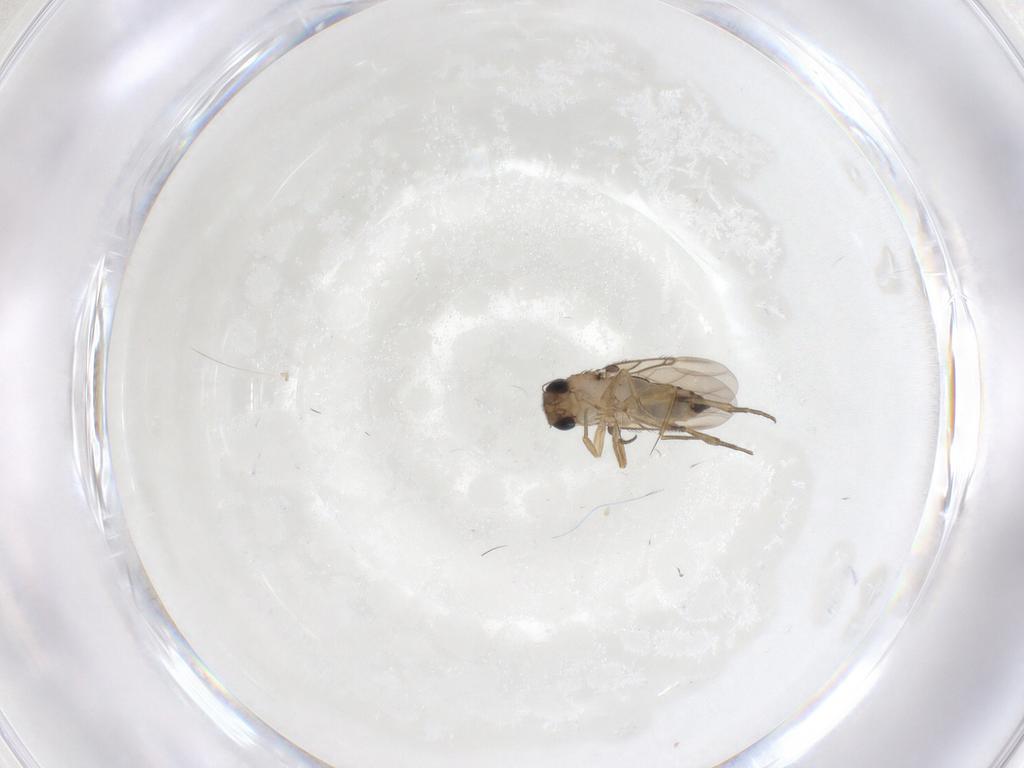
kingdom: Animalia
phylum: Arthropoda
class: Insecta
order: Diptera
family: Phoridae
